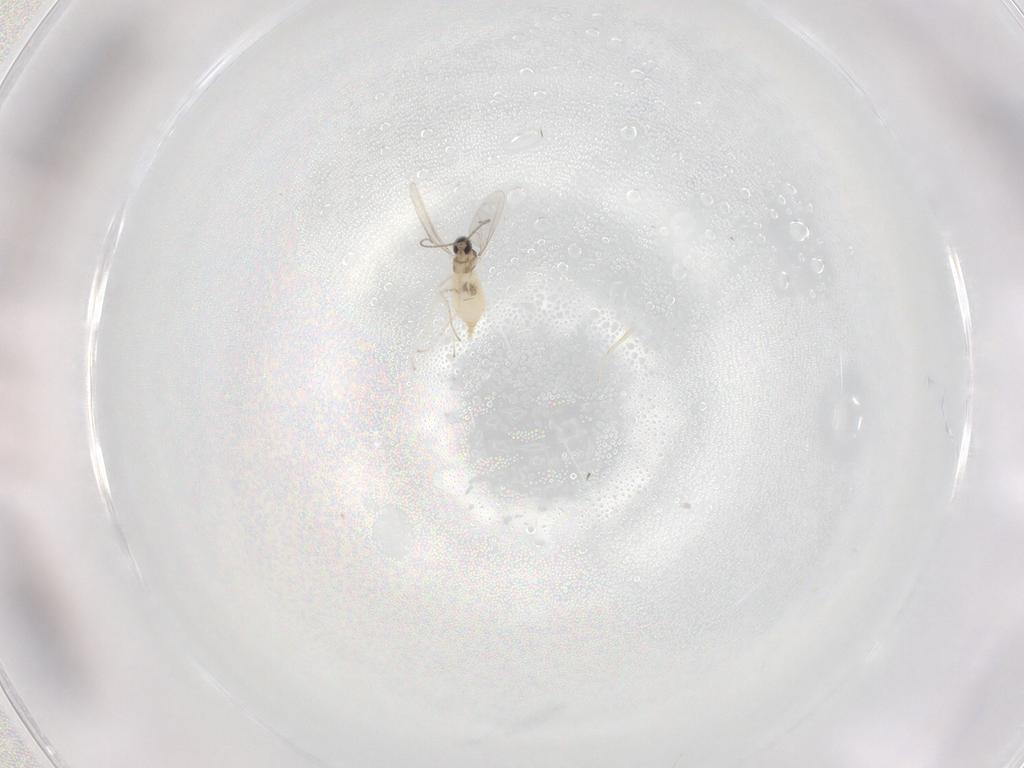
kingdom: Animalia
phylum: Arthropoda
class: Insecta
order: Diptera
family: Cecidomyiidae
